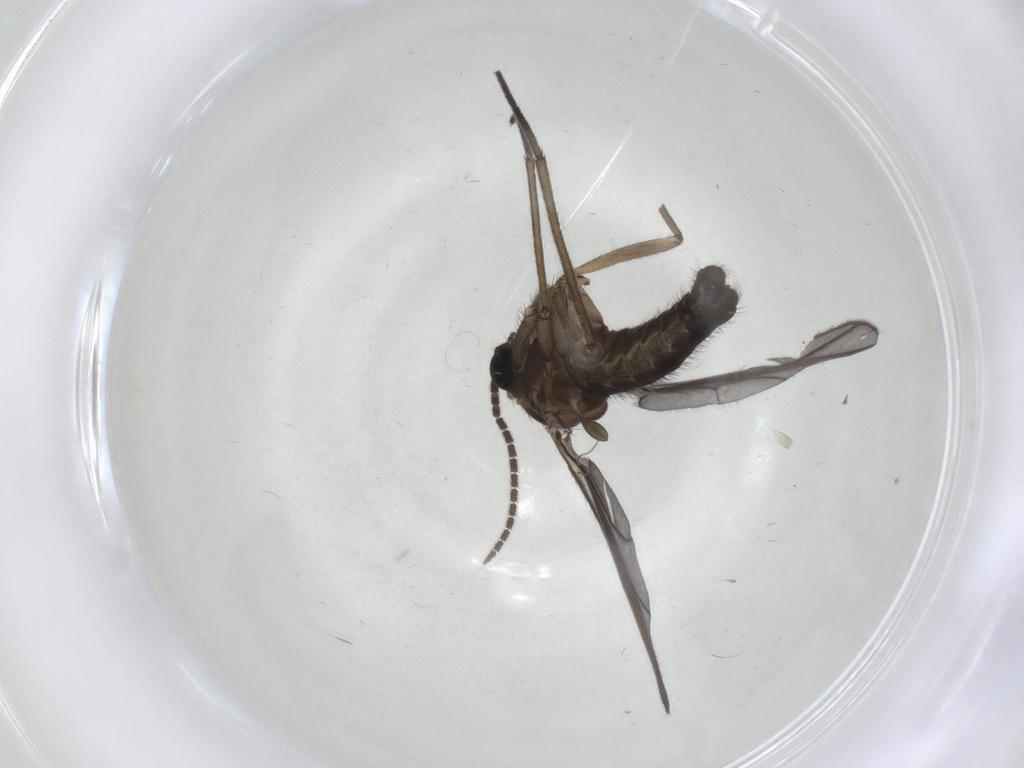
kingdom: Animalia
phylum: Arthropoda
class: Insecta
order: Diptera
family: Sciaridae
